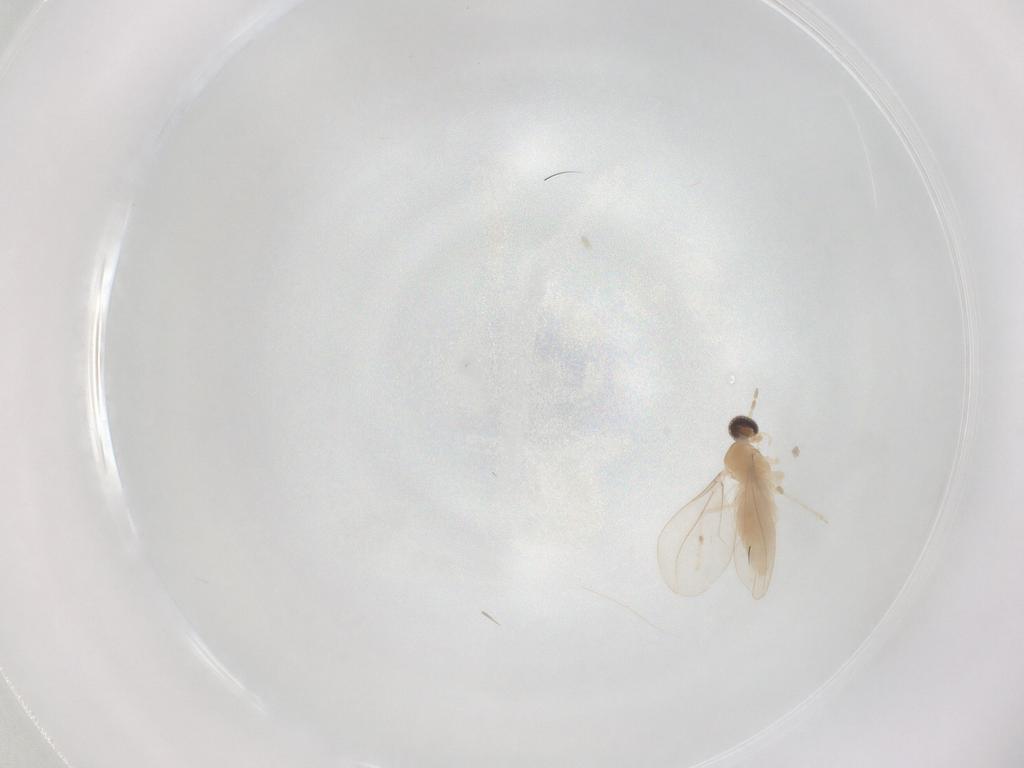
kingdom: Animalia
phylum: Arthropoda
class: Insecta
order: Diptera
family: Cecidomyiidae
